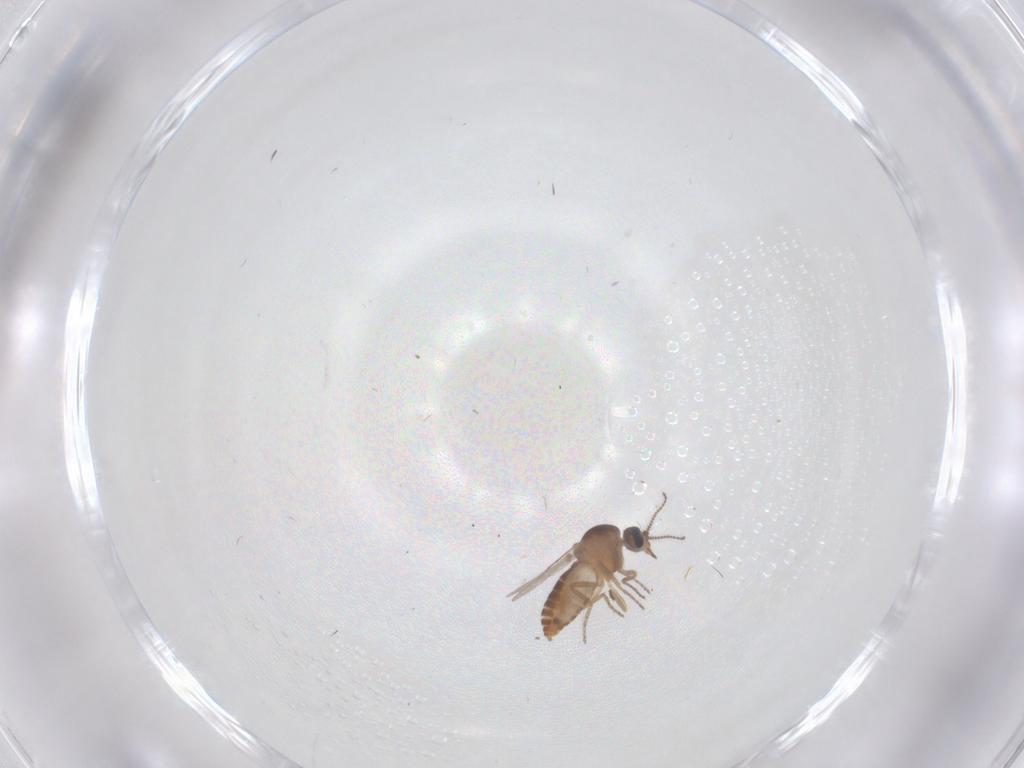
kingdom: Animalia
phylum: Arthropoda
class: Insecta
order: Diptera
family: Ceratopogonidae
